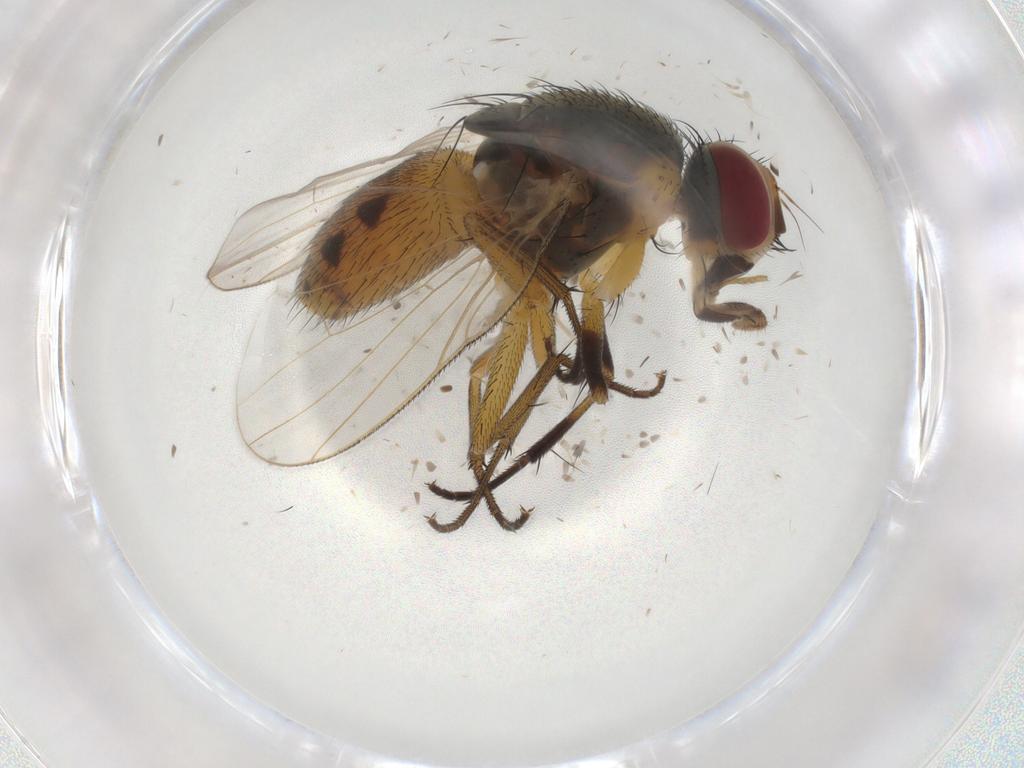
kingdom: Animalia
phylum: Arthropoda
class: Insecta
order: Diptera
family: Muscidae
